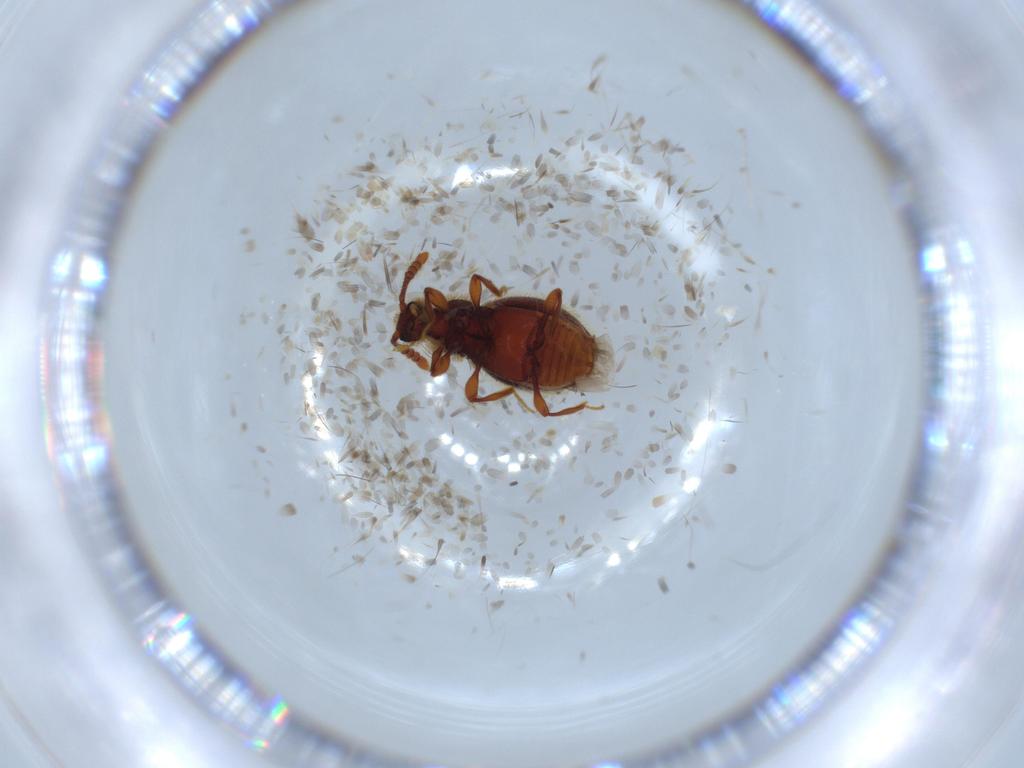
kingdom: Animalia
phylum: Arthropoda
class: Insecta
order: Coleoptera
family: Chrysomelidae
